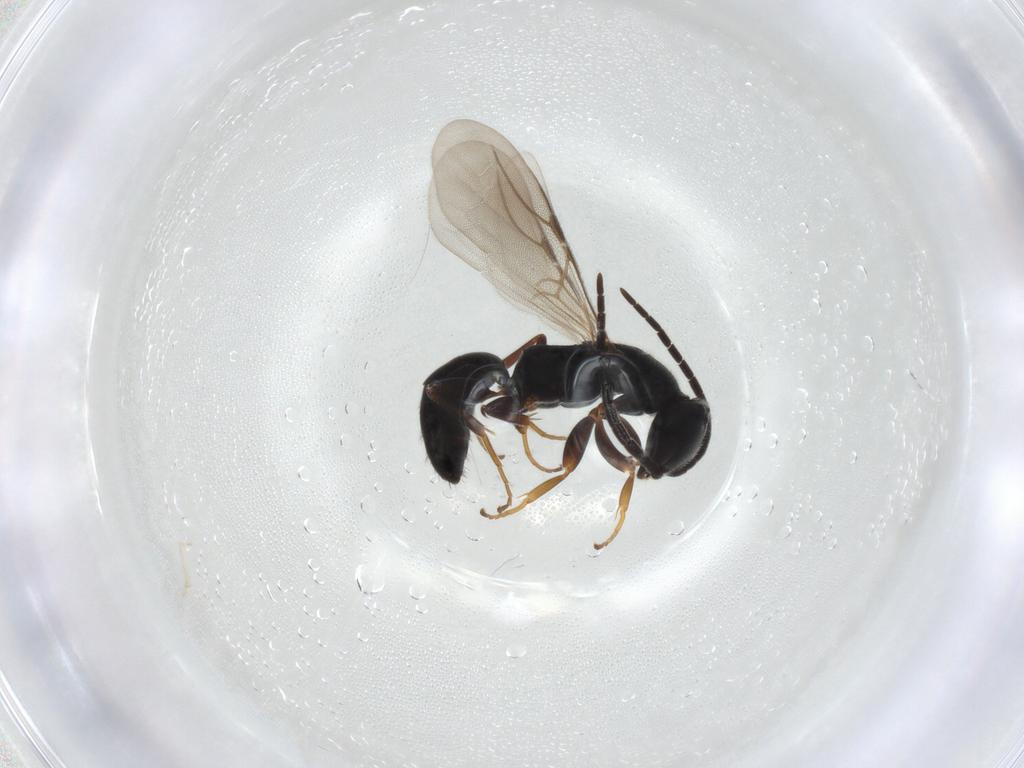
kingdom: Animalia
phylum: Arthropoda
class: Insecta
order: Hymenoptera
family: Bethylidae
